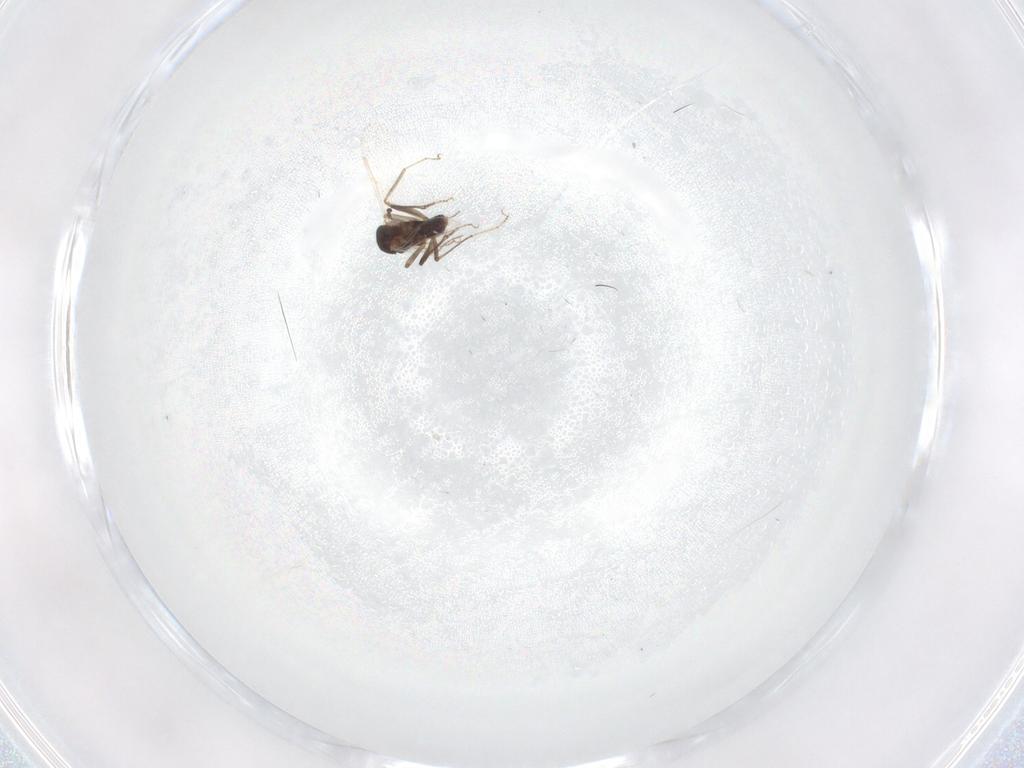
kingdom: Animalia
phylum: Arthropoda
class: Insecta
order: Diptera
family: Ceratopogonidae
